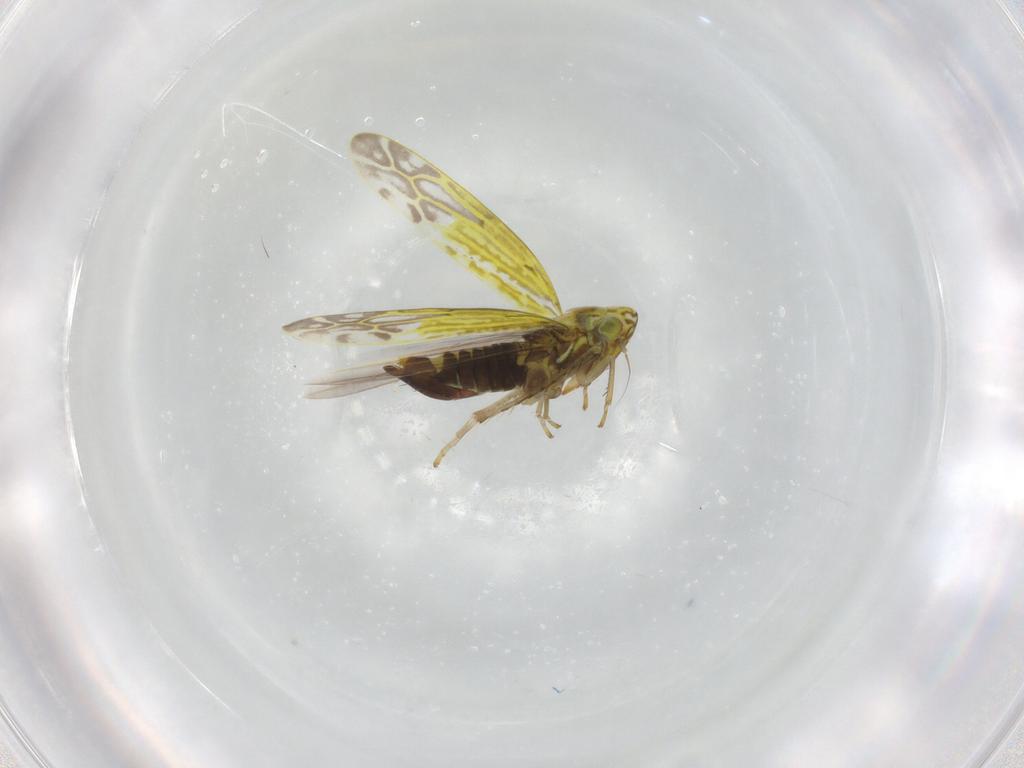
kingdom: Animalia
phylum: Arthropoda
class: Insecta
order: Hemiptera
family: Cicadellidae
